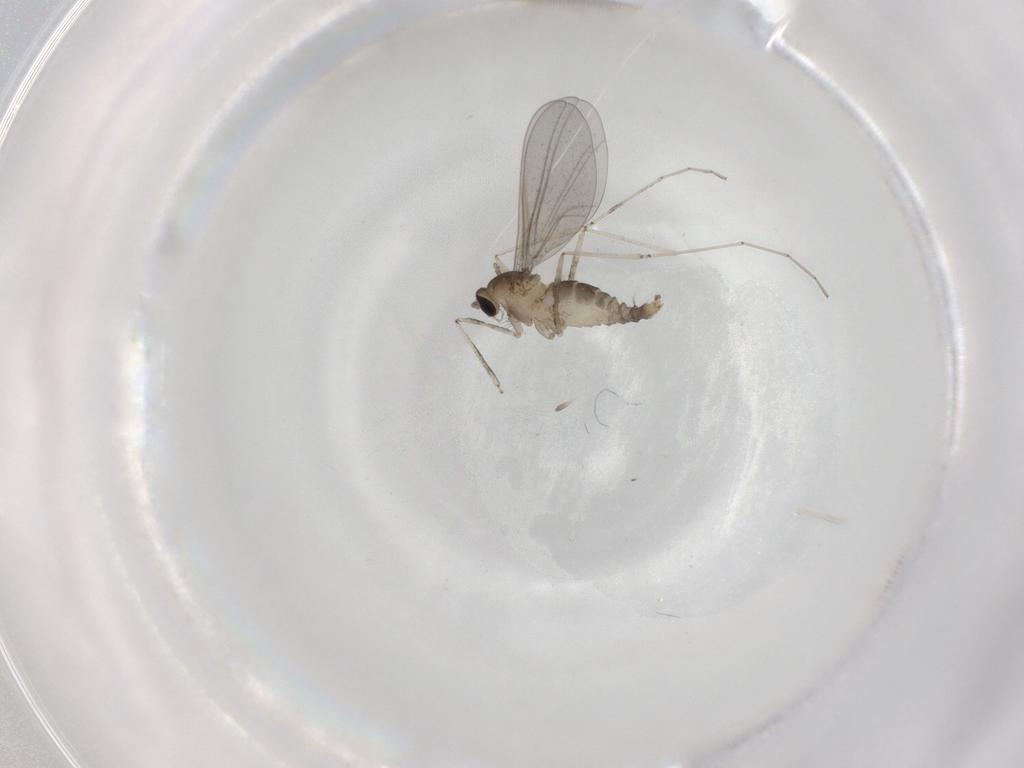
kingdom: Animalia
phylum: Arthropoda
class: Insecta
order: Diptera
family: Cecidomyiidae
